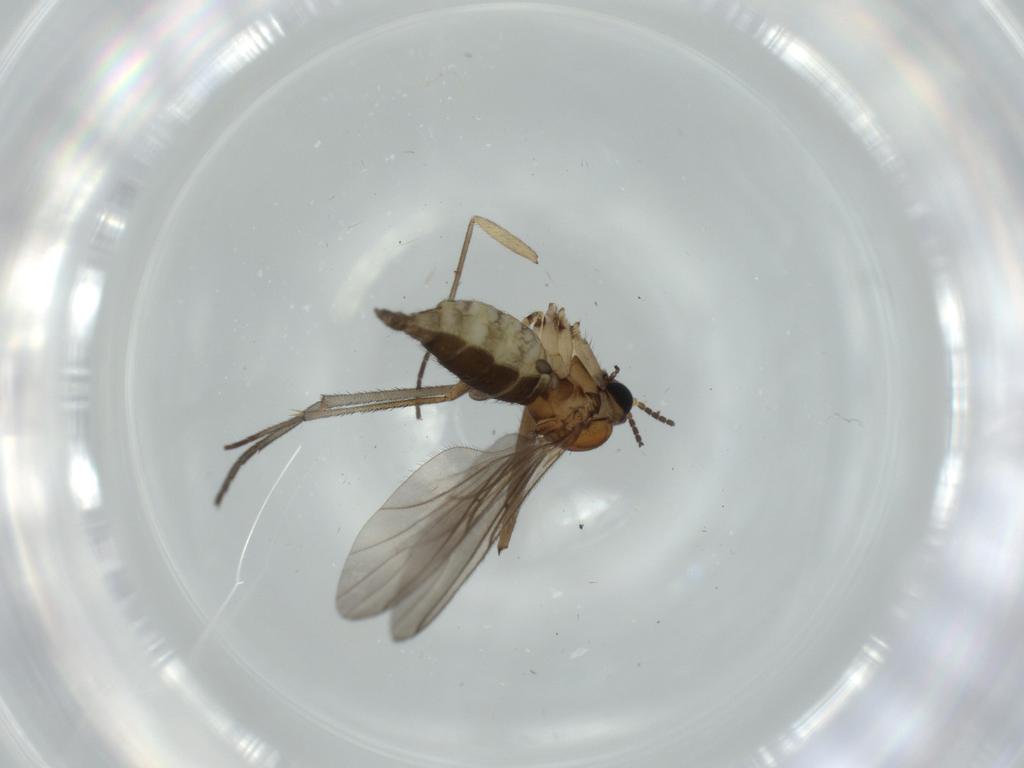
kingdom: Animalia
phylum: Arthropoda
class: Insecta
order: Diptera
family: Sciaridae
